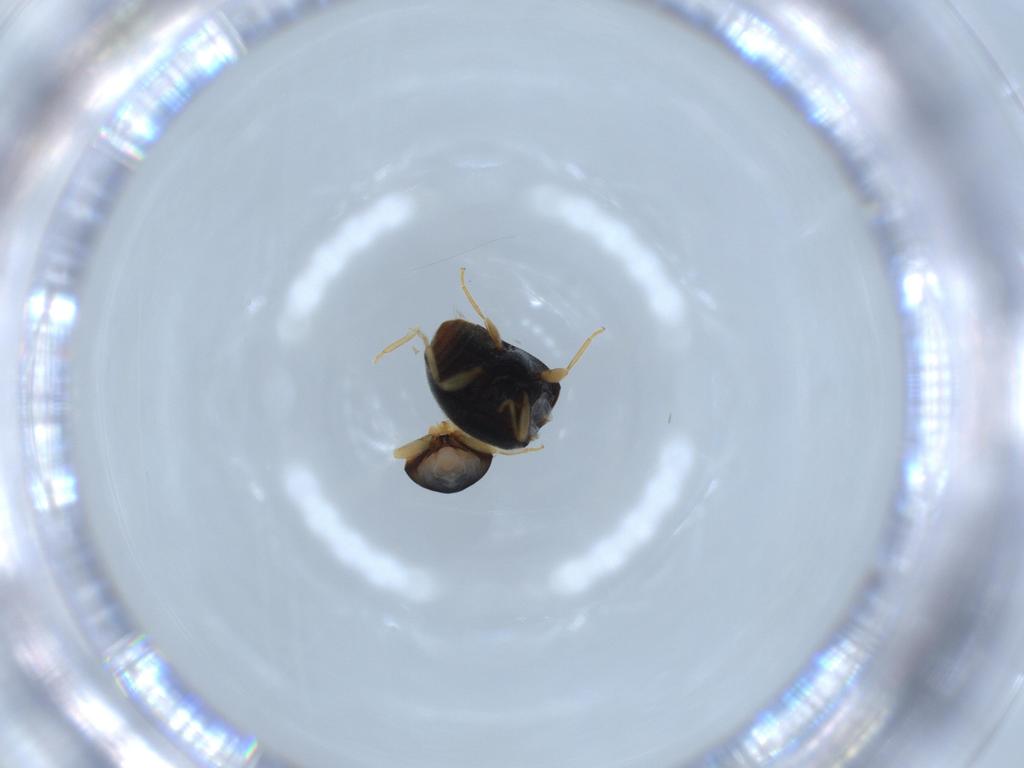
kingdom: Animalia
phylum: Arthropoda
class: Insecta
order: Coleoptera
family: Coccinellidae
